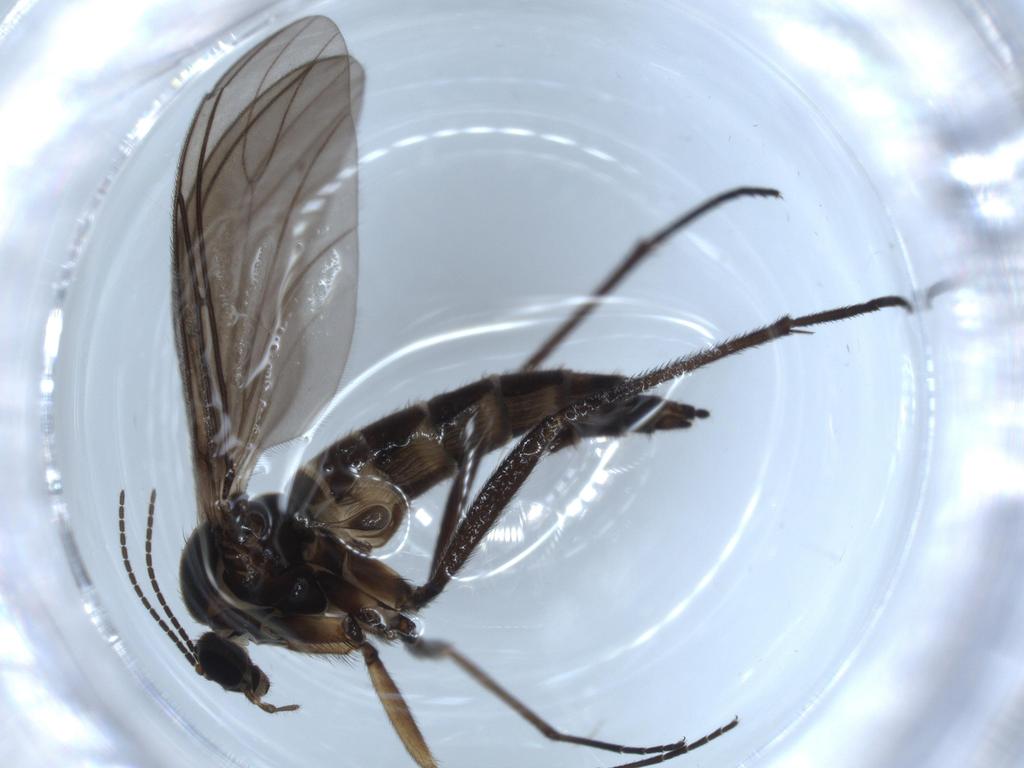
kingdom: Animalia
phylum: Arthropoda
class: Insecta
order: Diptera
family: Sciaridae
